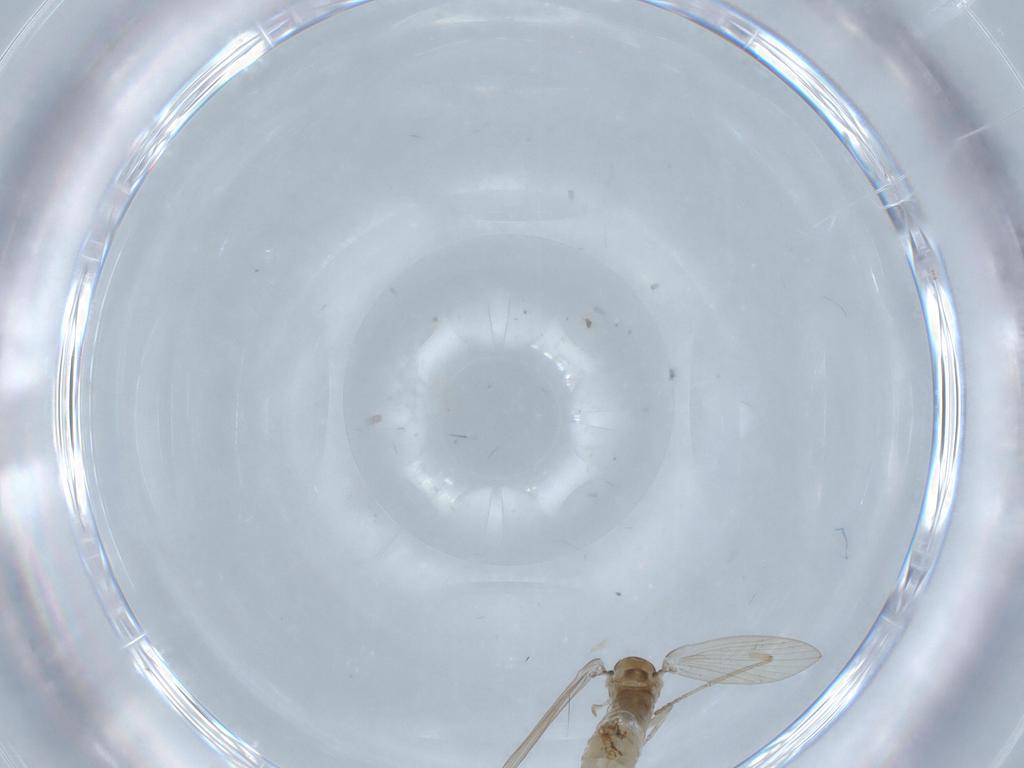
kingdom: Animalia
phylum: Arthropoda
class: Insecta
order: Diptera
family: Psychodidae
